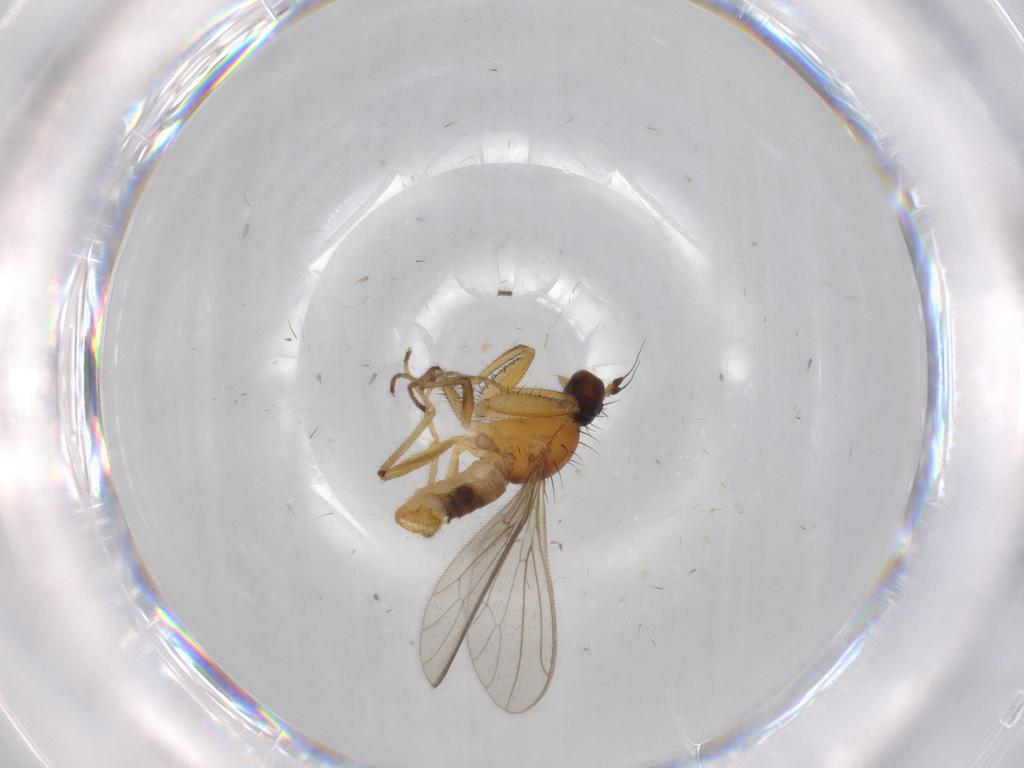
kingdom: Animalia
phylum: Arthropoda
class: Insecta
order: Diptera
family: Empididae
